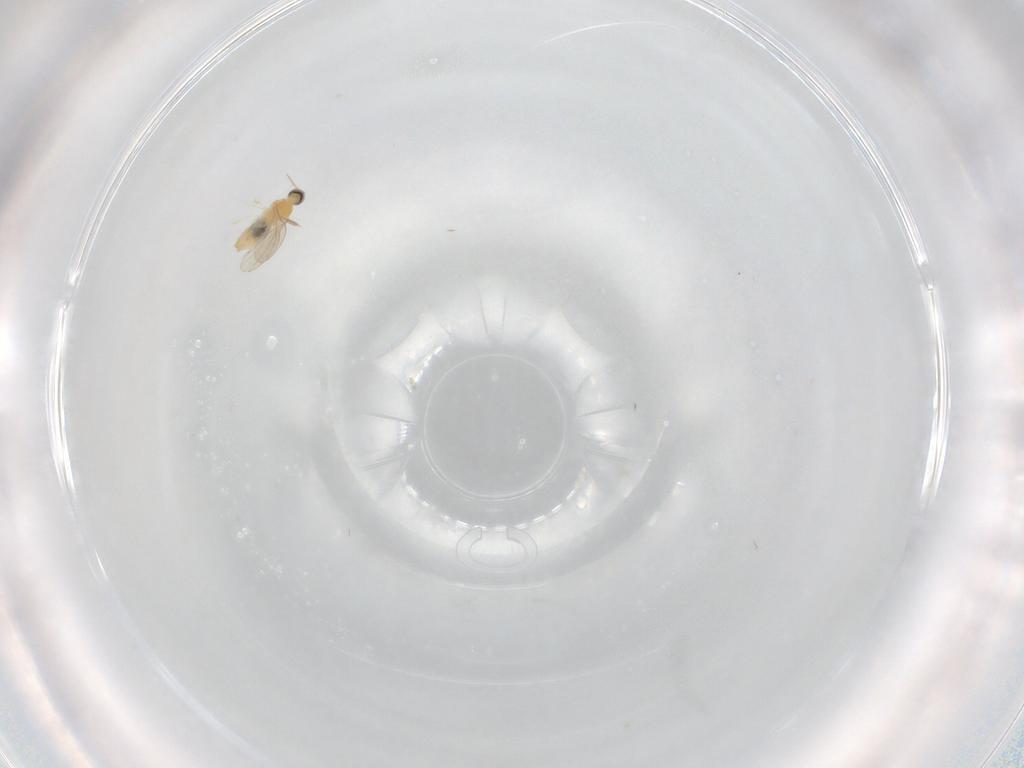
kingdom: Animalia
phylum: Arthropoda
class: Insecta
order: Diptera
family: Cecidomyiidae
